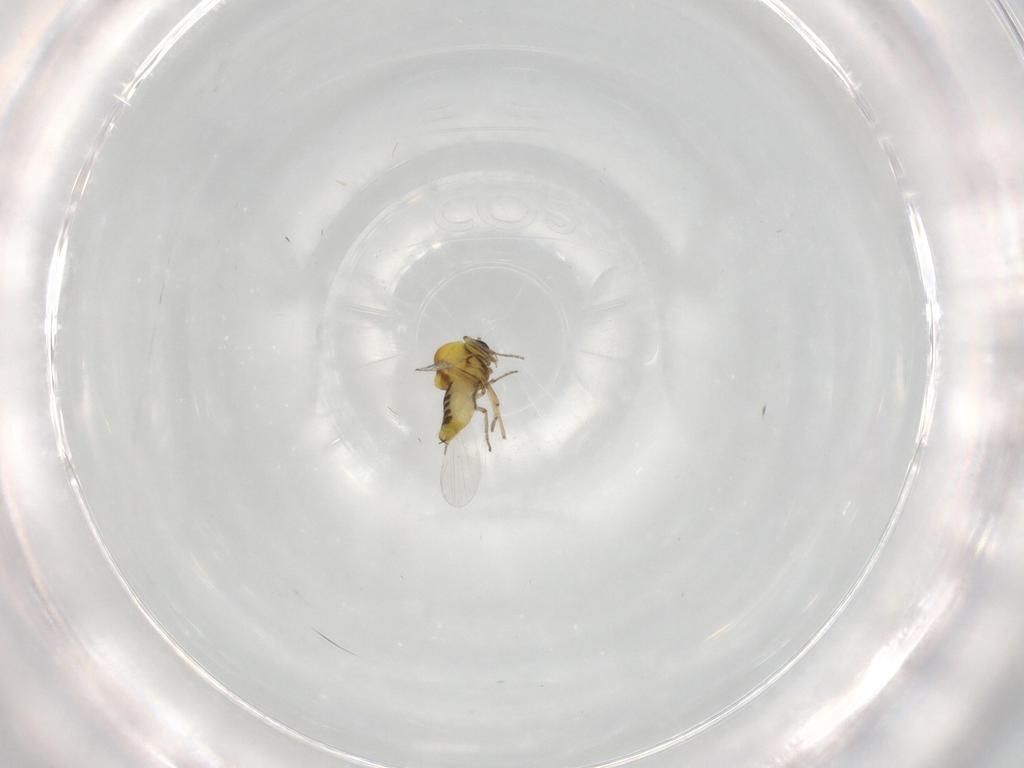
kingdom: Animalia
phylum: Arthropoda
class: Insecta
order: Diptera
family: Ceratopogonidae
